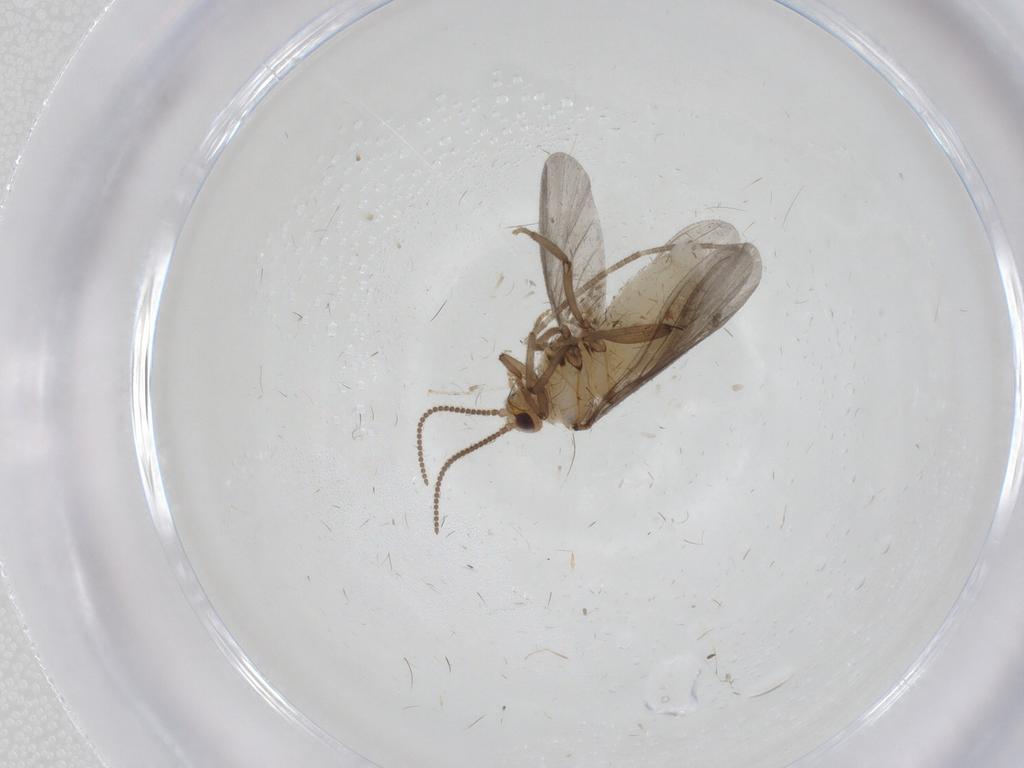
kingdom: Animalia
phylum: Arthropoda
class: Insecta
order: Neuroptera
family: Coniopterygidae
